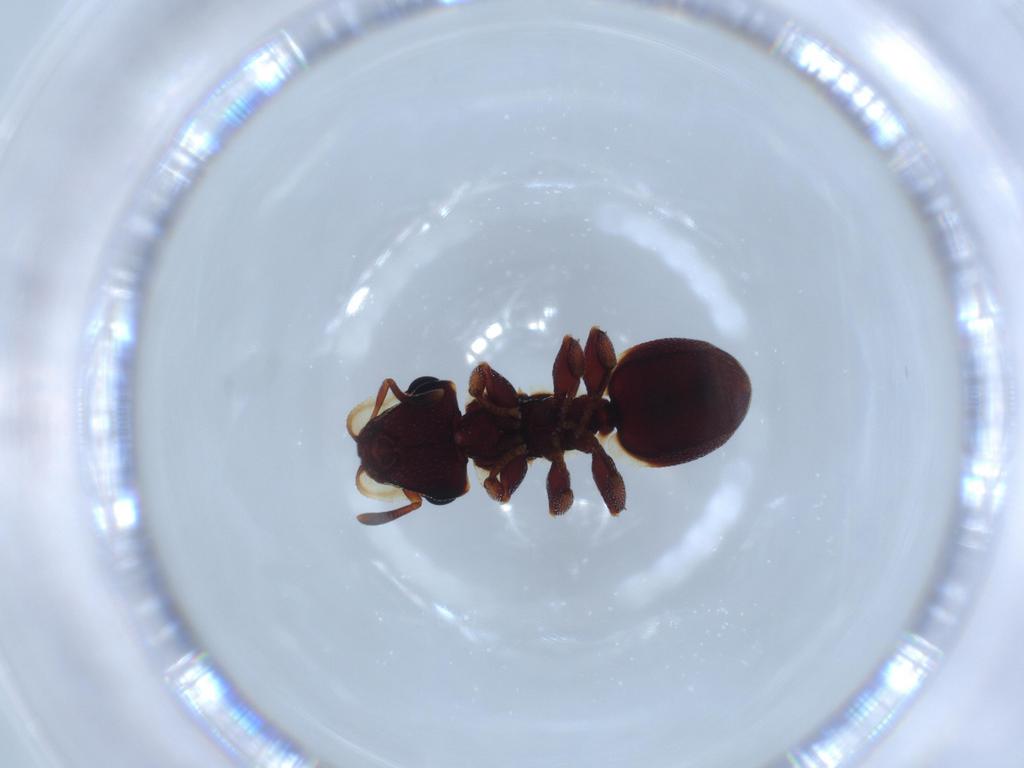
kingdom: Animalia
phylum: Arthropoda
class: Insecta
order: Hymenoptera
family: Formicidae
